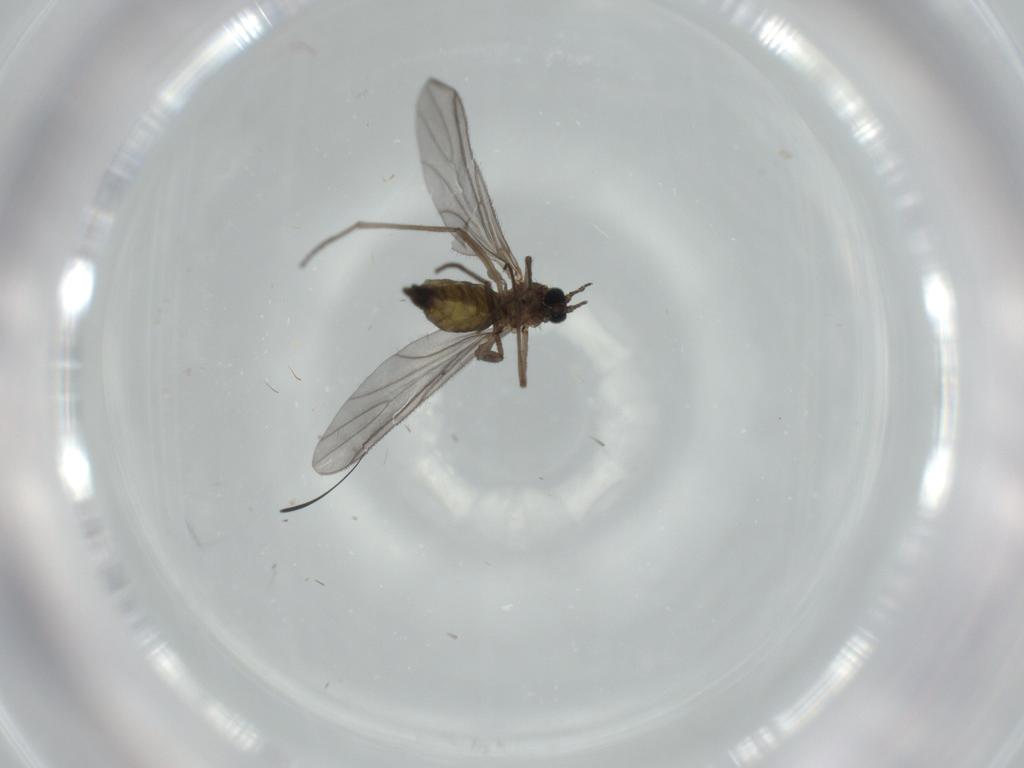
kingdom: Animalia
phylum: Arthropoda
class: Insecta
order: Diptera
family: Sciaridae
